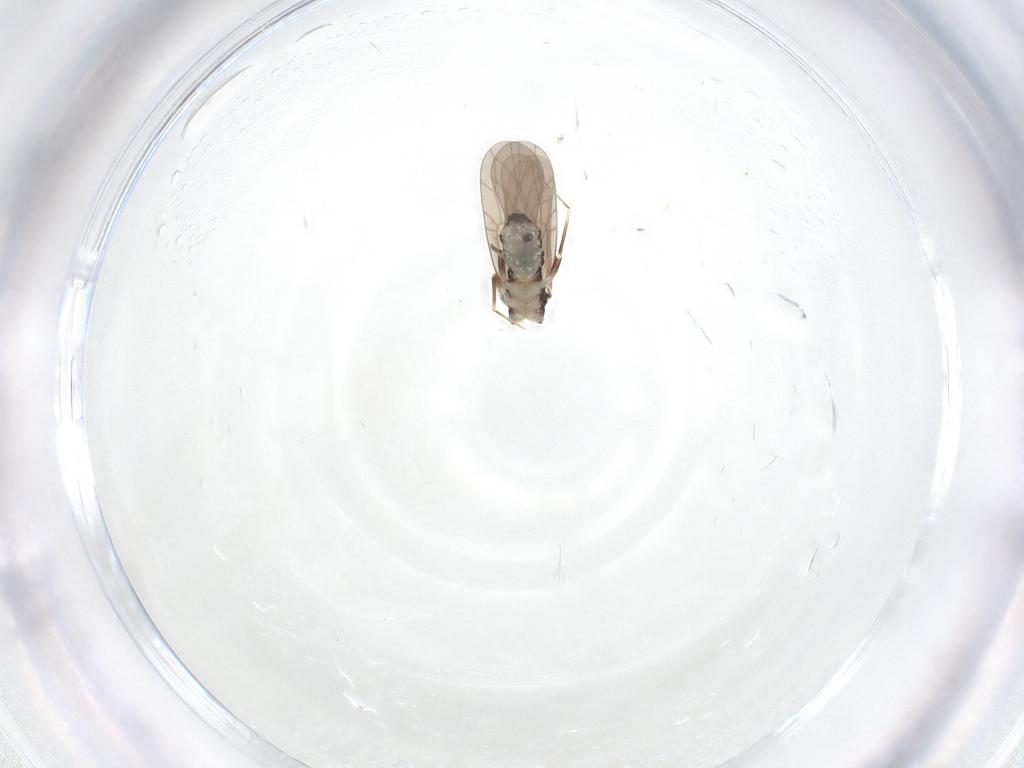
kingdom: Animalia
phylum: Arthropoda
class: Insecta
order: Psocodea
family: Lepidopsocidae
